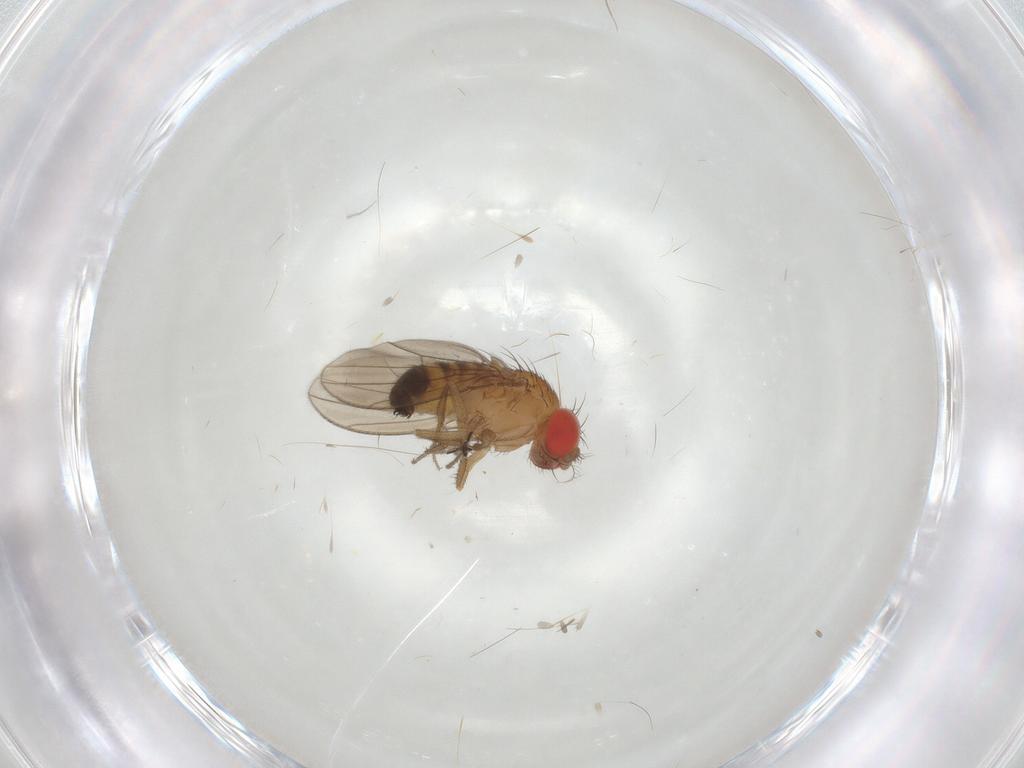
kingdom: Animalia
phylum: Arthropoda
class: Insecta
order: Diptera
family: Drosophilidae
